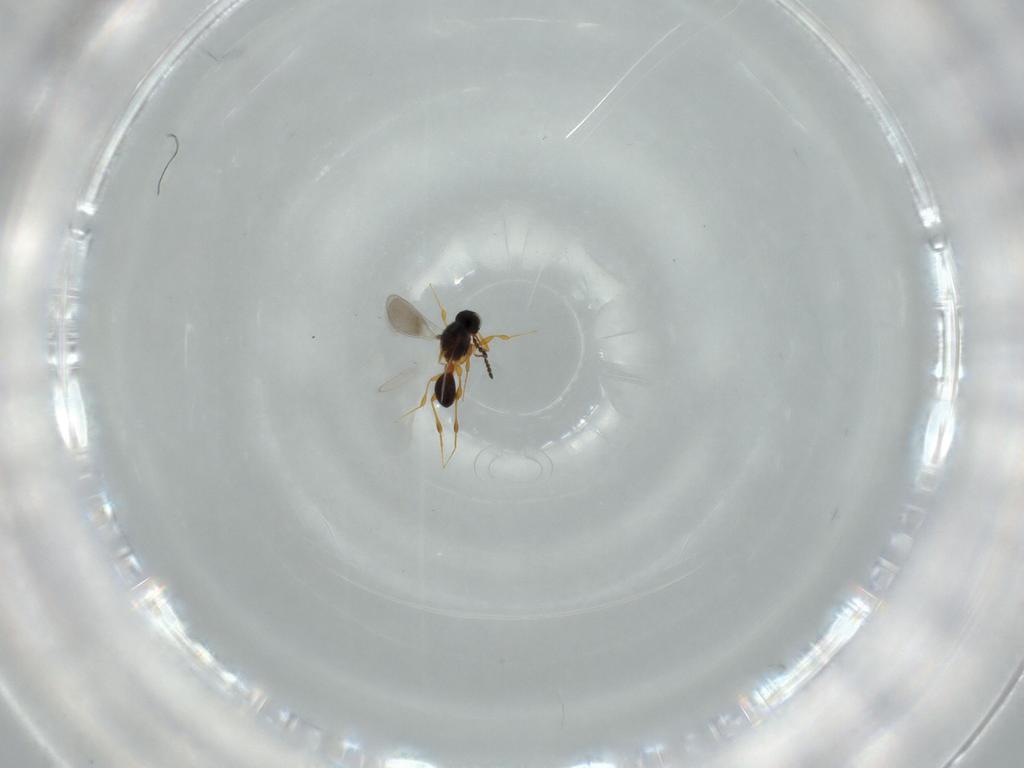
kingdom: Animalia
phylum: Arthropoda
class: Insecta
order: Hymenoptera
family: Platygastridae
